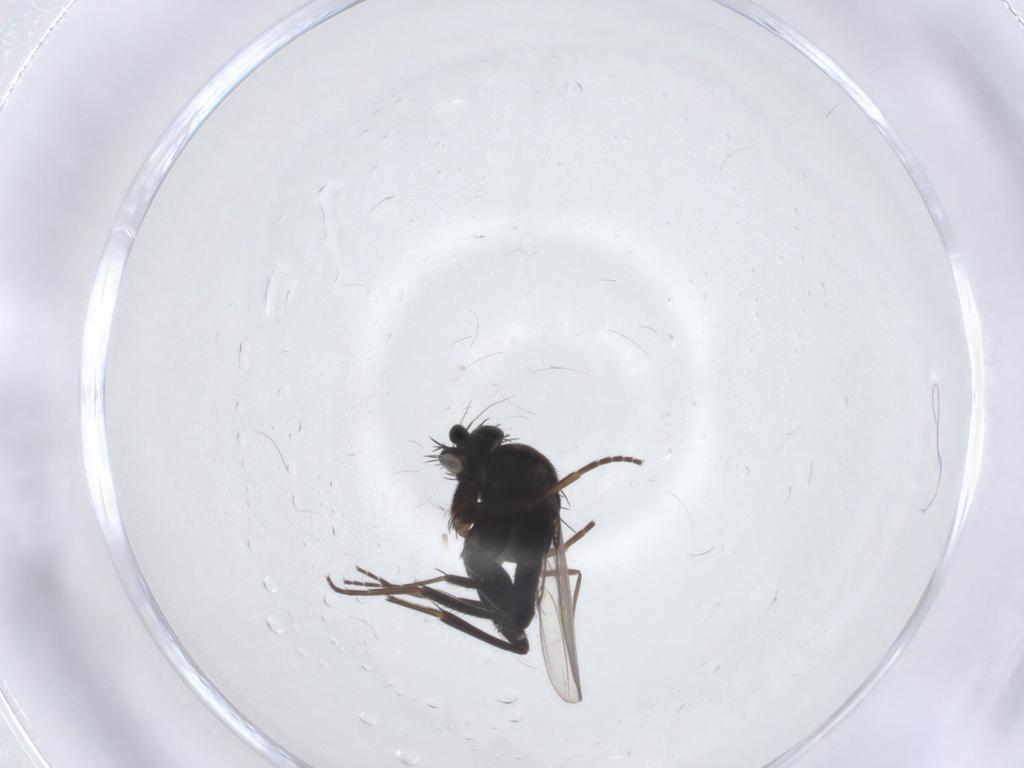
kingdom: Animalia
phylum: Arthropoda
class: Insecta
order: Diptera
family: Phoridae
